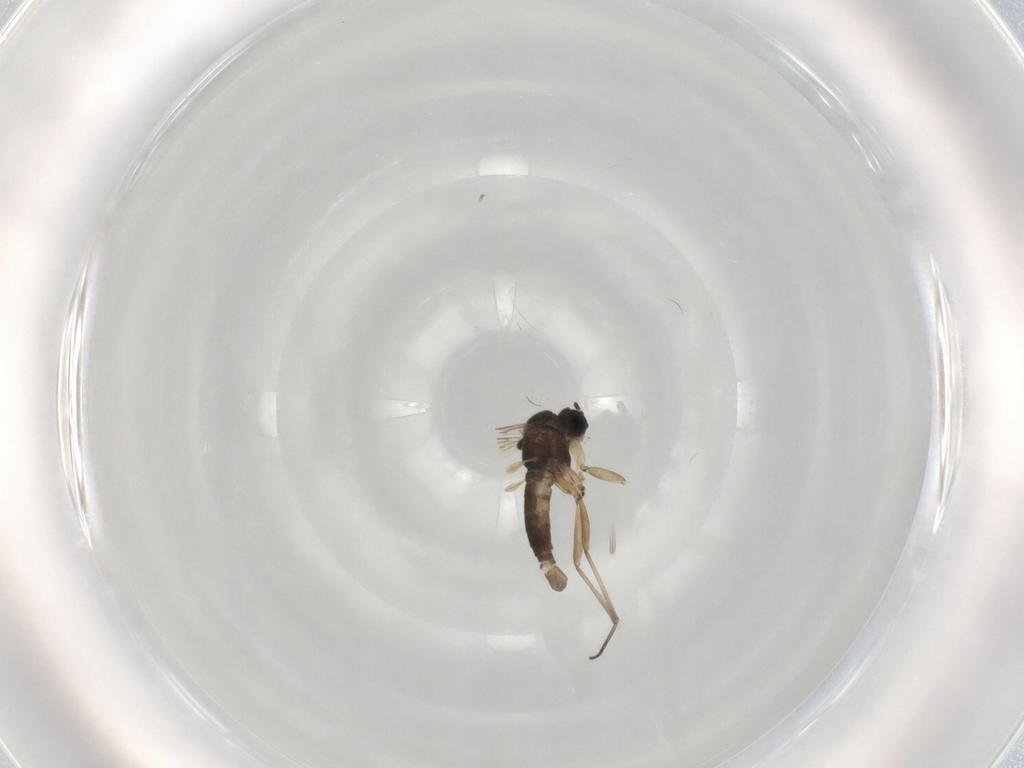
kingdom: Animalia
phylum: Arthropoda
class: Insecta
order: Diptera
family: Sciaridae
